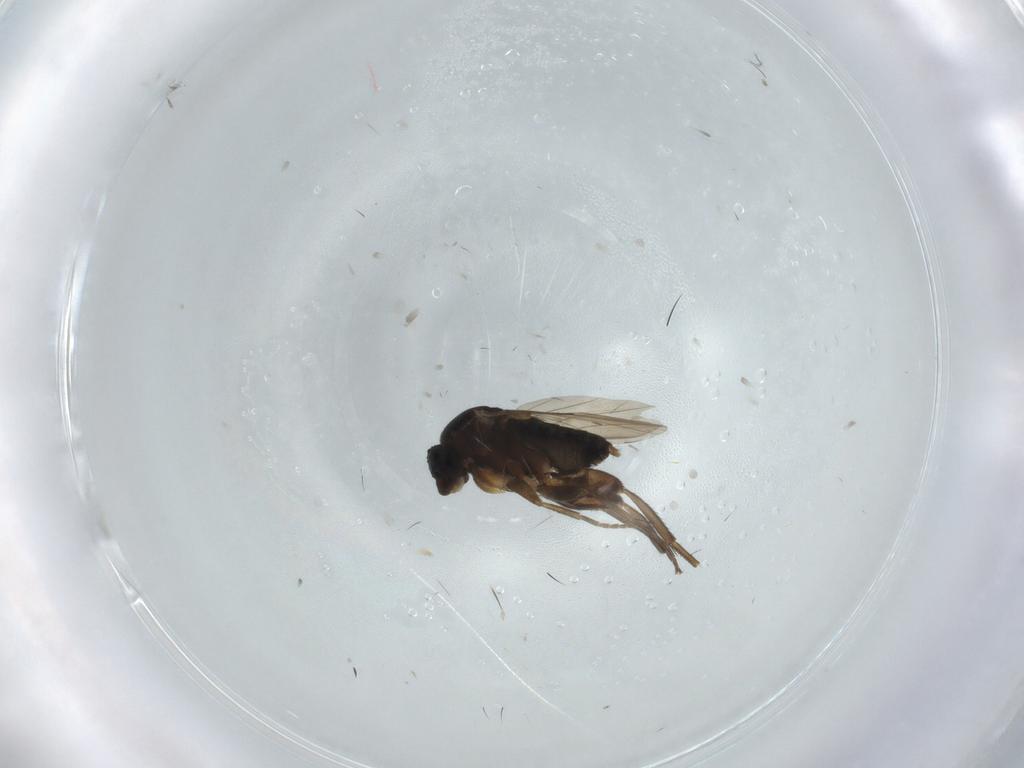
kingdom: Animalia
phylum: Arthropoda
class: Insecta
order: Diptera
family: Phoridae
